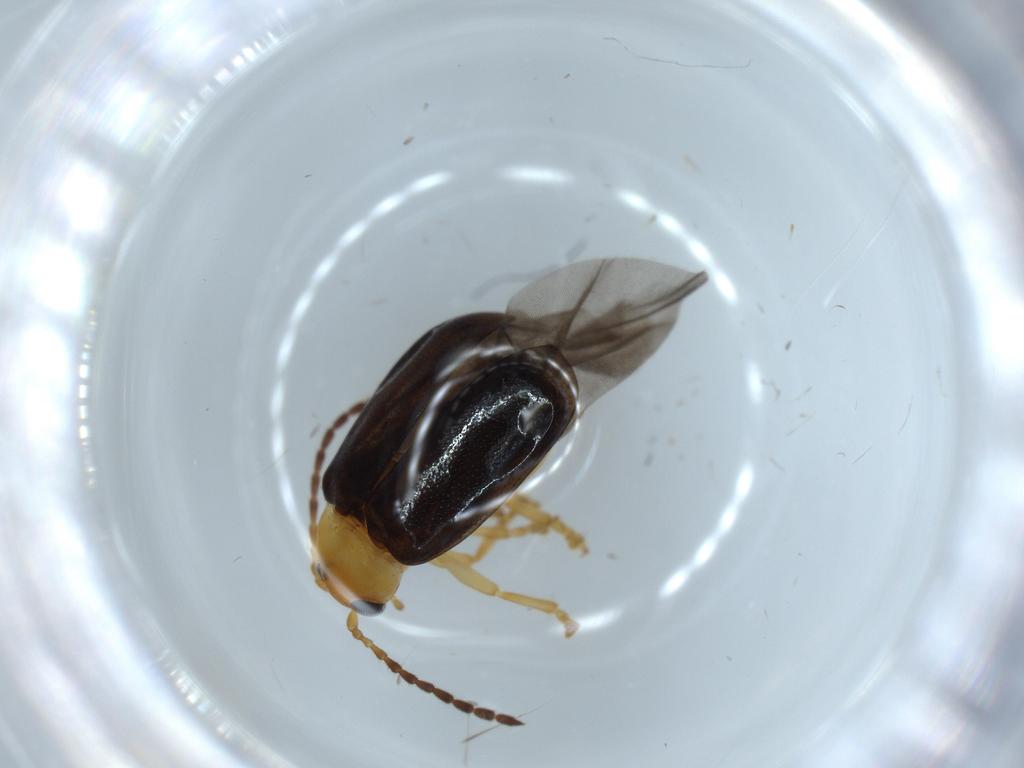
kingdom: Animalia
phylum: Arthropoda
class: Insecta
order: Coleoptera
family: Chrysomelidae
